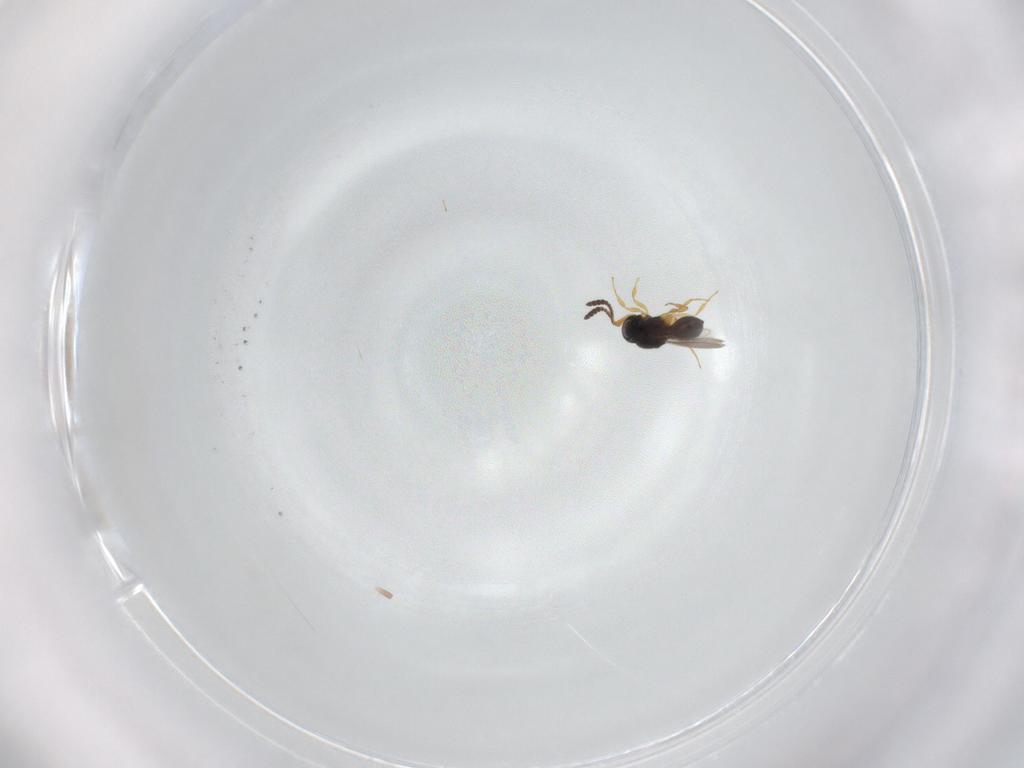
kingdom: Animalia
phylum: Arthropoda
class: Insecta
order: Hymenoptera
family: Scelionidae
